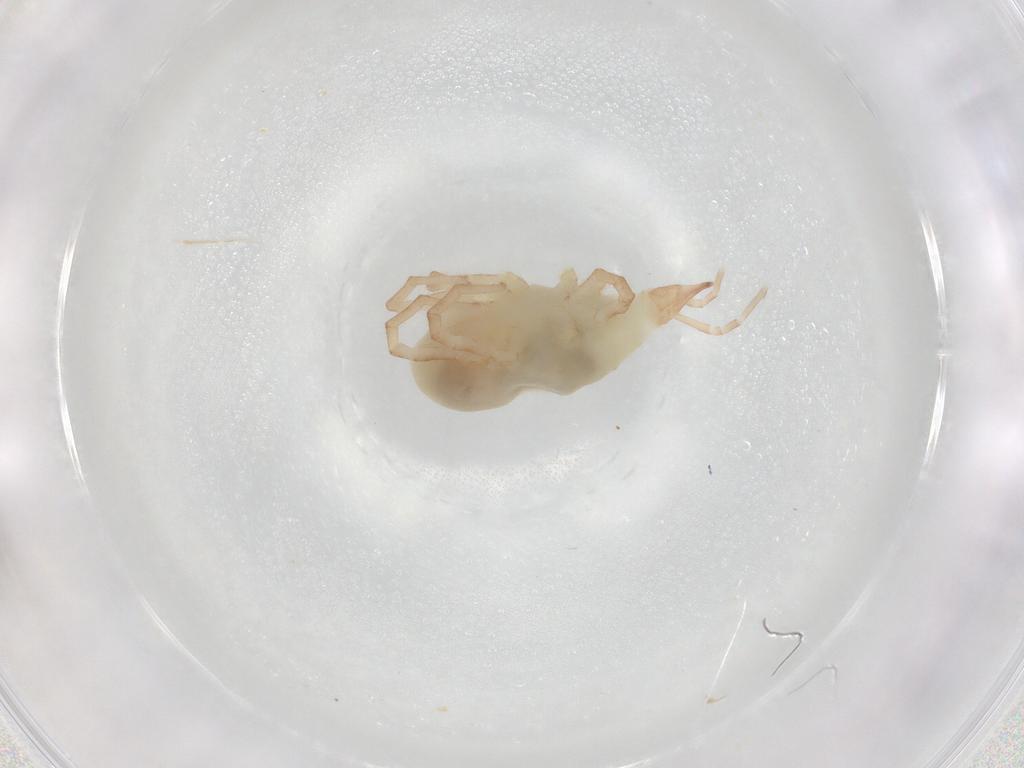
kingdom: Animalia
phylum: Arthropoda
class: Arachnida
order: Trombidiformes
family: Bdellidae
